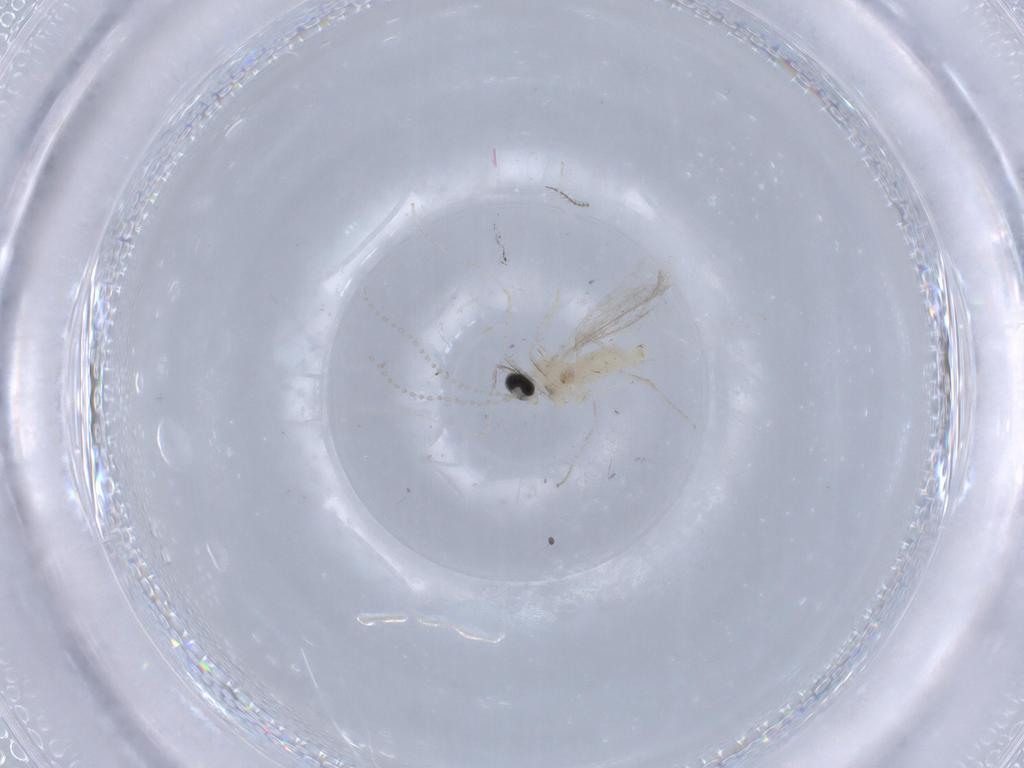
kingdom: Animalia
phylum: Arthropoda
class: Insecta
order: Diptera
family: Cecidomyiidae
